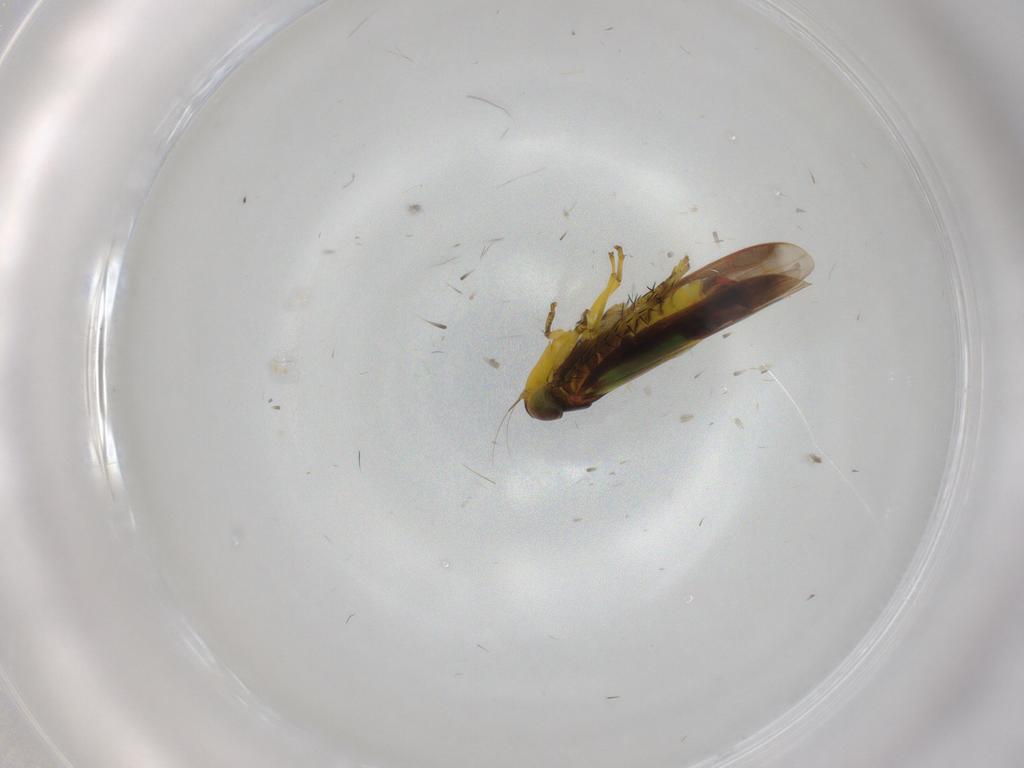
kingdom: Animalia
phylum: Arthropoda
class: Insecta
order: Hemiptera
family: Cicadellidae
